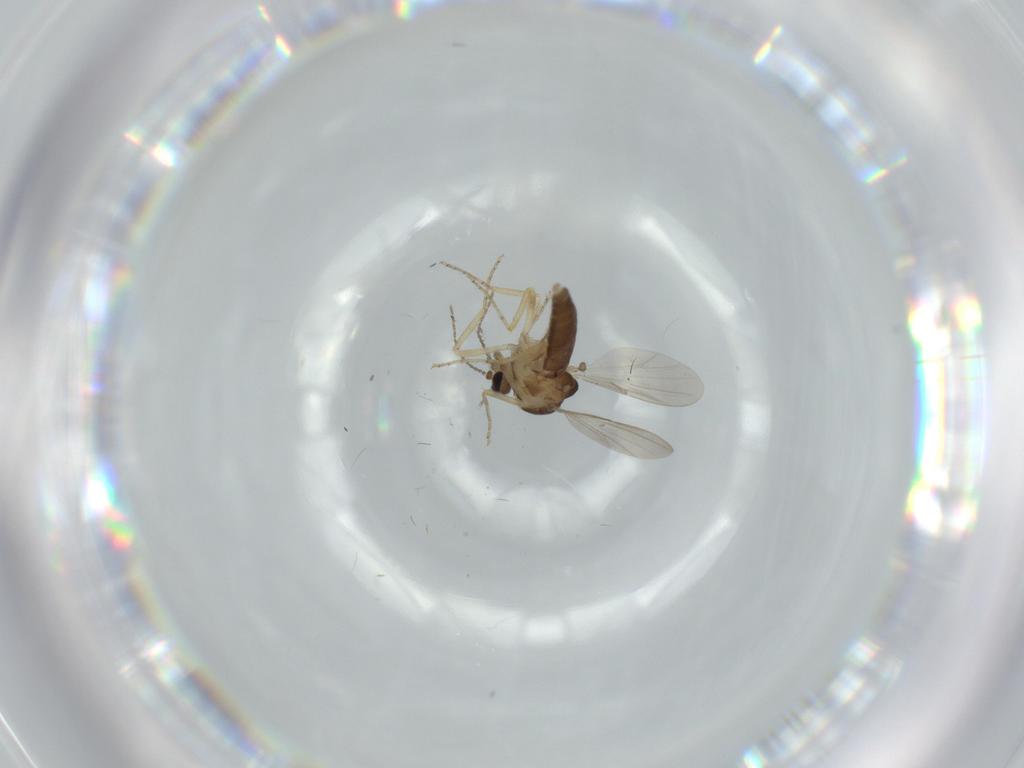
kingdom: Animalia
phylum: Arthropoda
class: Insecta
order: Diptera
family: Ceratopogonidae
